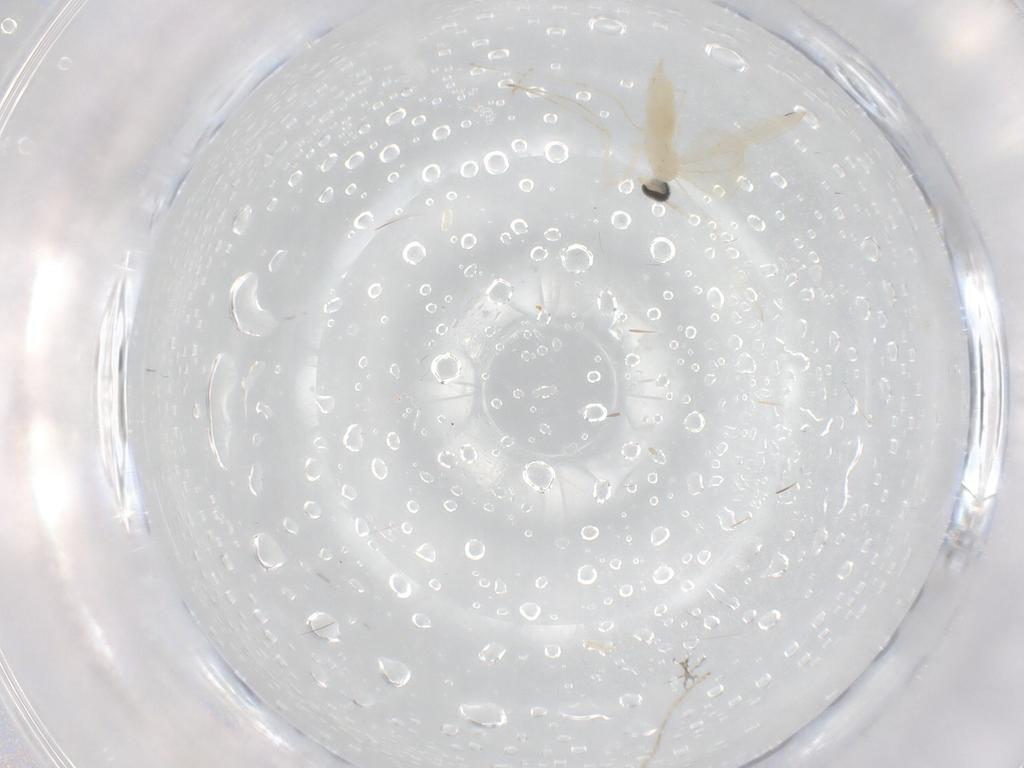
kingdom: Animalia
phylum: Arthropoda
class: Insecta
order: Diptera
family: Cecidomyiidae
